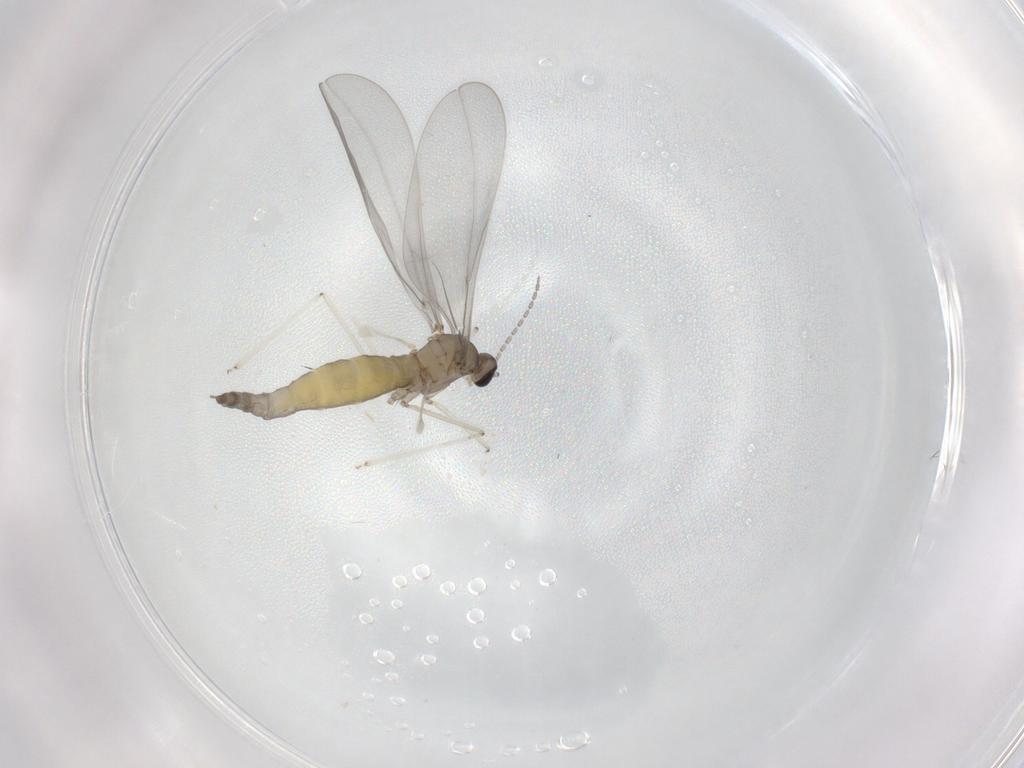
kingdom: Animalia
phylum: Arthropoda
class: Insecta
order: Diptera
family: Cecidomyiidae
